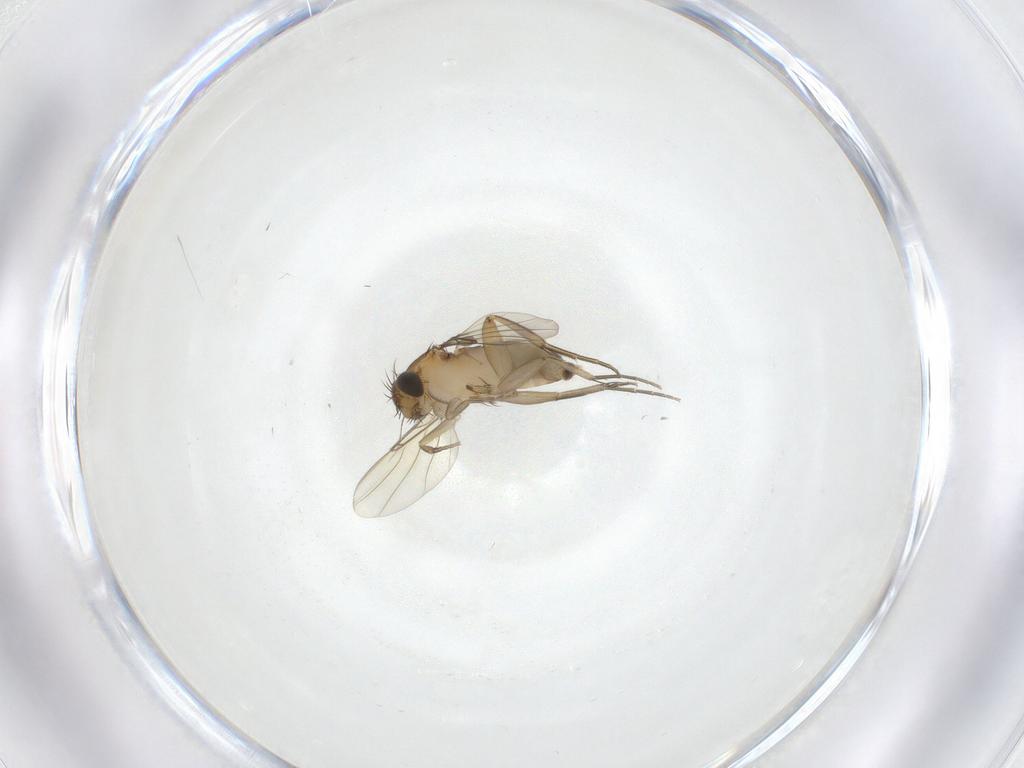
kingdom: Animalia
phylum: Arthropoda
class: Insecta
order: Diptera
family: Phoridae
